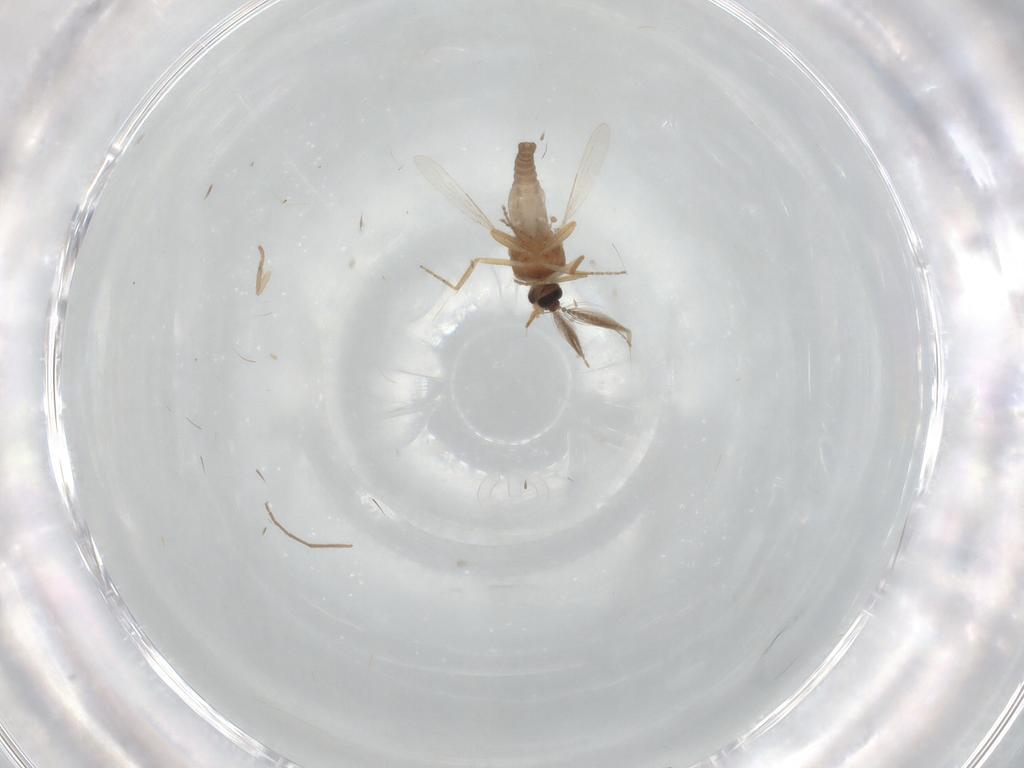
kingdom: Animalia
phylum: Arthropoda
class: Insecta
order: Diptera
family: Ceratopogonidae
